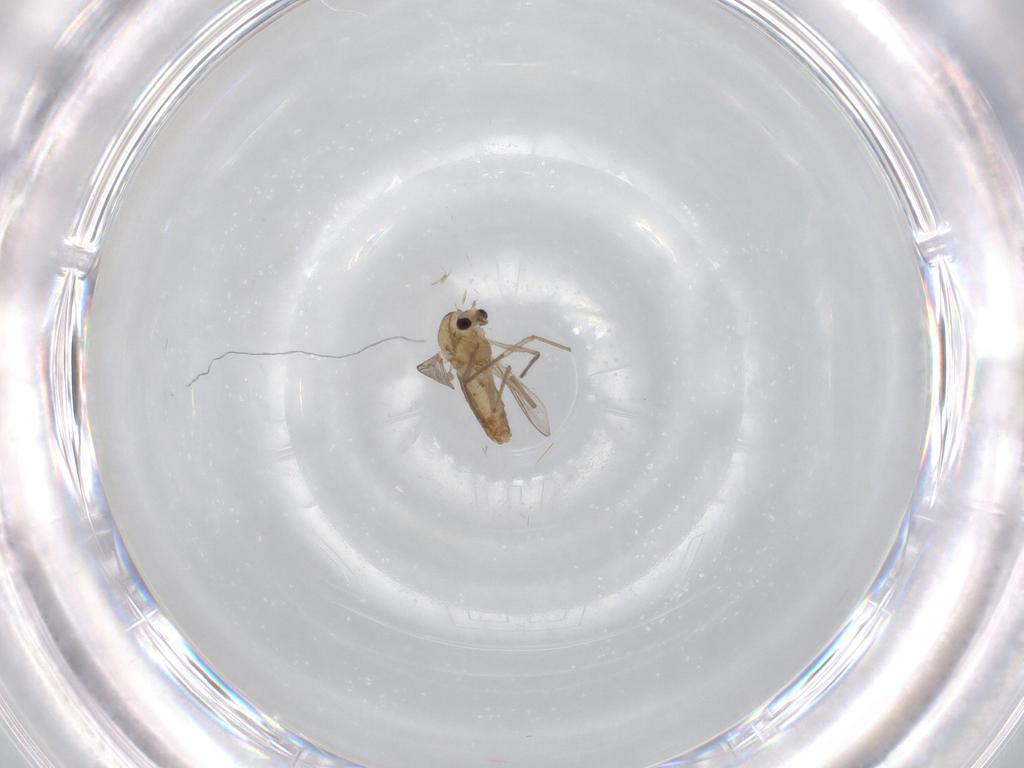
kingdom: Animalia
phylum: Arthropoda
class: Insecta
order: Diptera
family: Chironomidae
